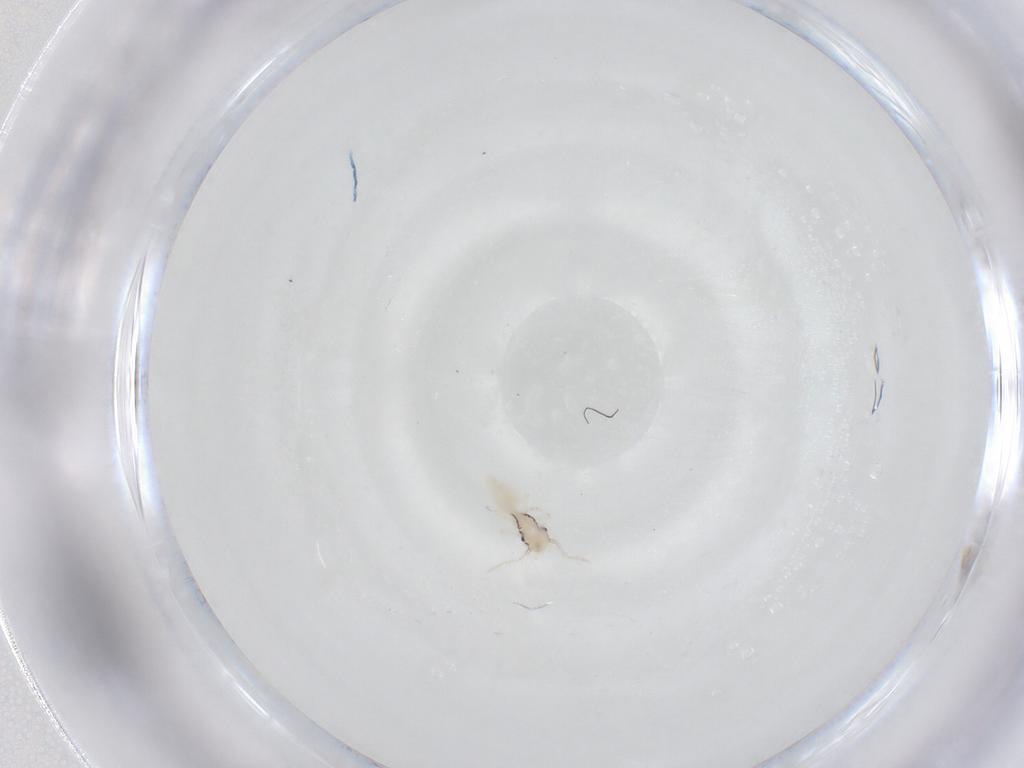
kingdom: Animalia
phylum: Arthropoda
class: Insecta
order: Psocodea
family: Caeciliusidae
